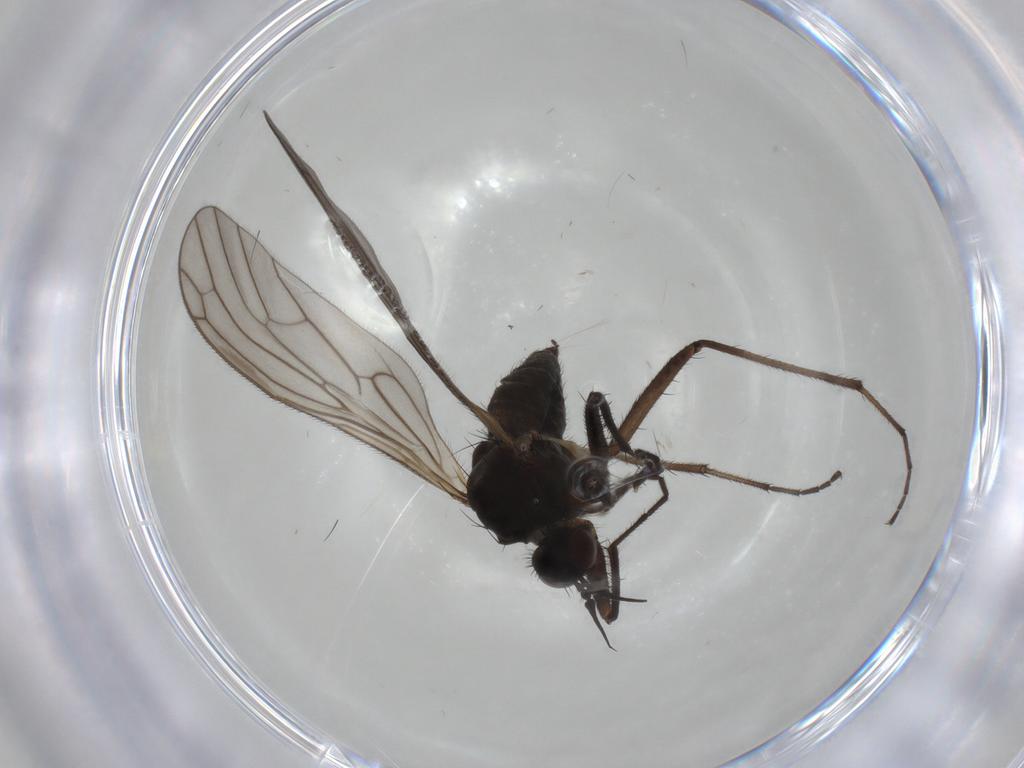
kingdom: Animalia
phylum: Arthropoda
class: Insecta
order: Diptera
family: Empididae
